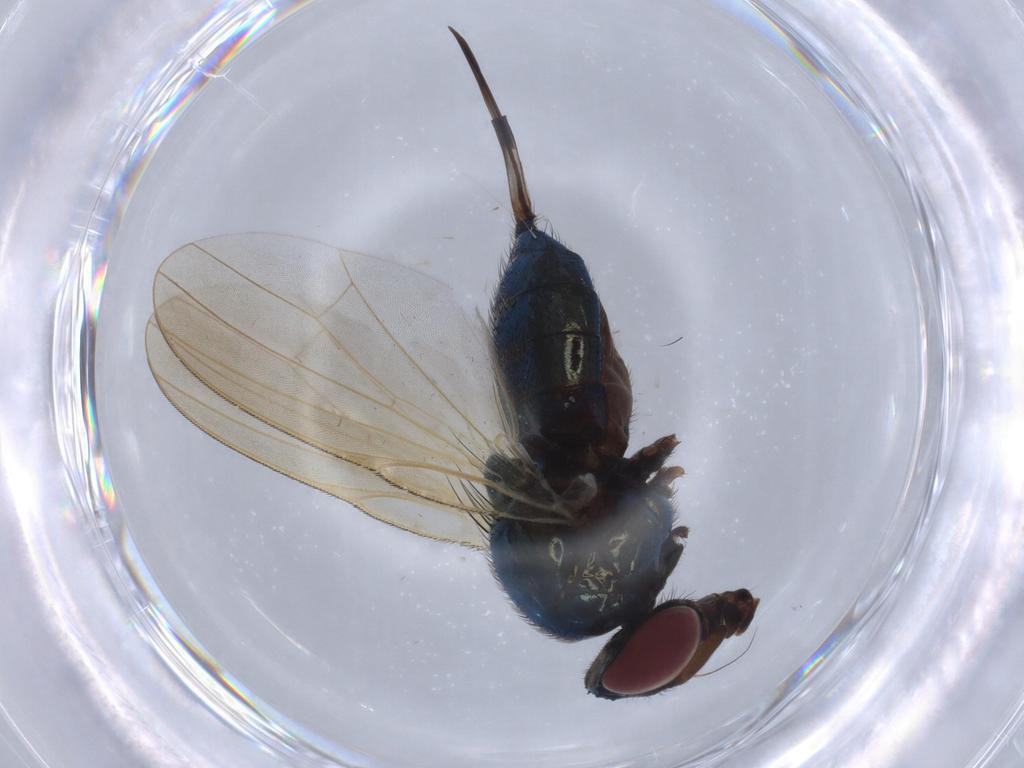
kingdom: Animalia
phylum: Arthropoda
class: Insecta
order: Diptera
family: Lonchaeidae
